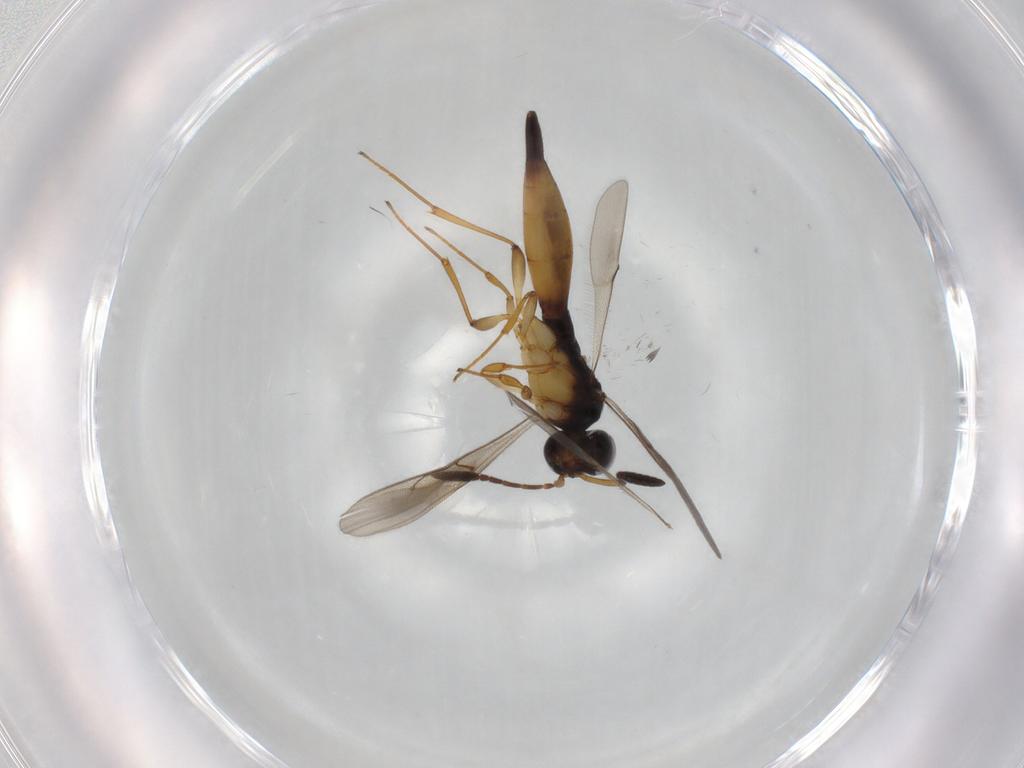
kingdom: Animalia
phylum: Arthropoda
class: Insecta
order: Hymenoptera
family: Scelionidae
